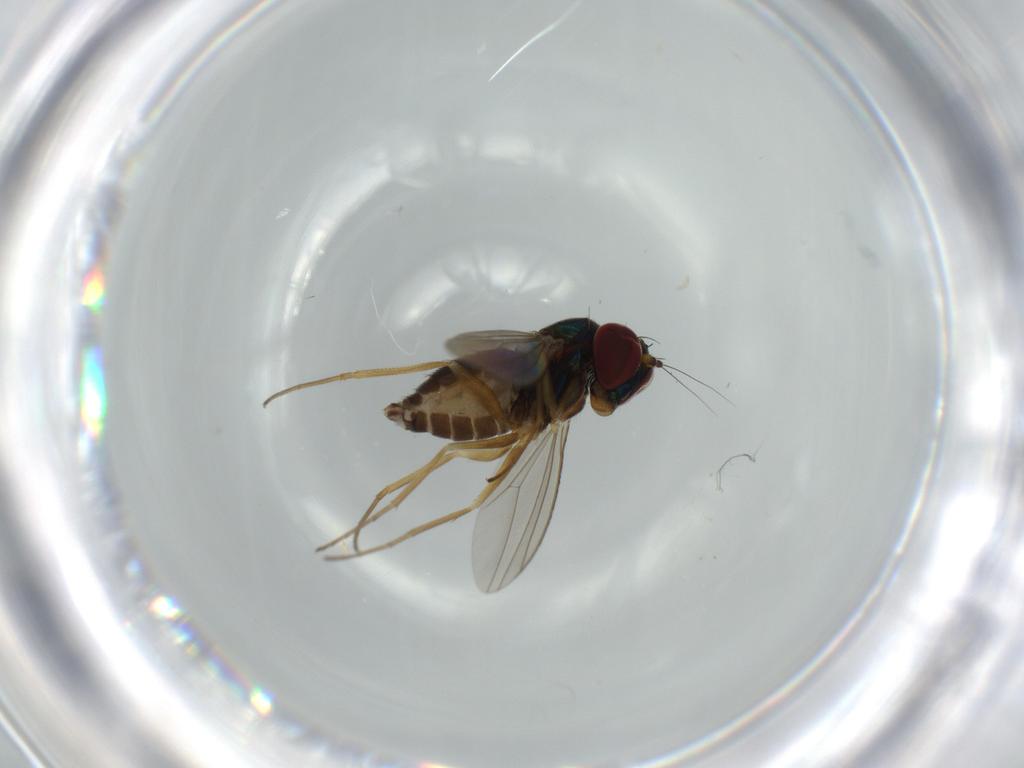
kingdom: Animalia
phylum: Arthropoda
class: Insecta
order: Diptera
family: Dolichopodidae
